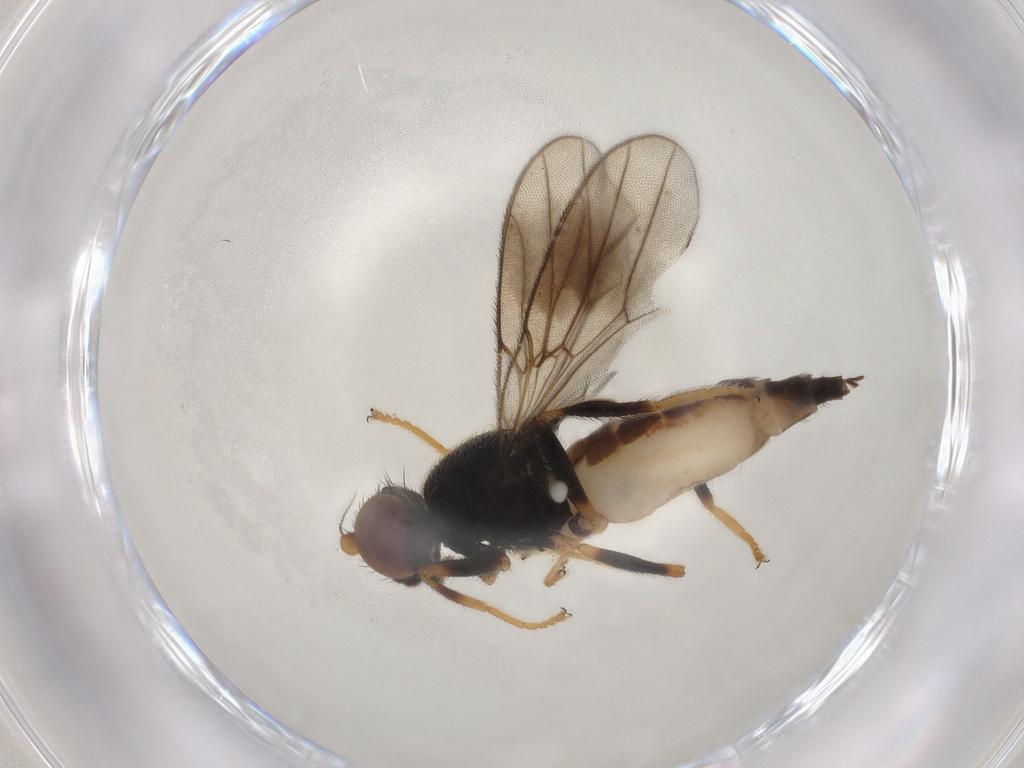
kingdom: Animalia
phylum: Arthropoda
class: Insecta
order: Diptera
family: Chloropidae
